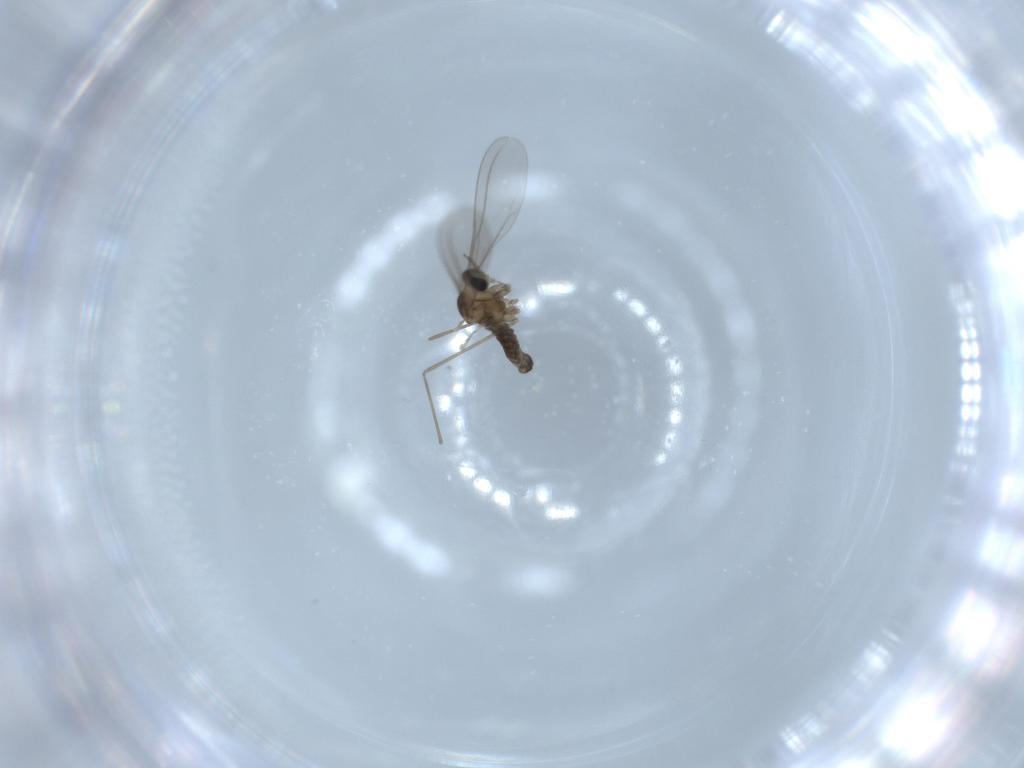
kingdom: Animalia
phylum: Arthropoda
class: Insecta
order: Diptera
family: Cecidomyiidae
